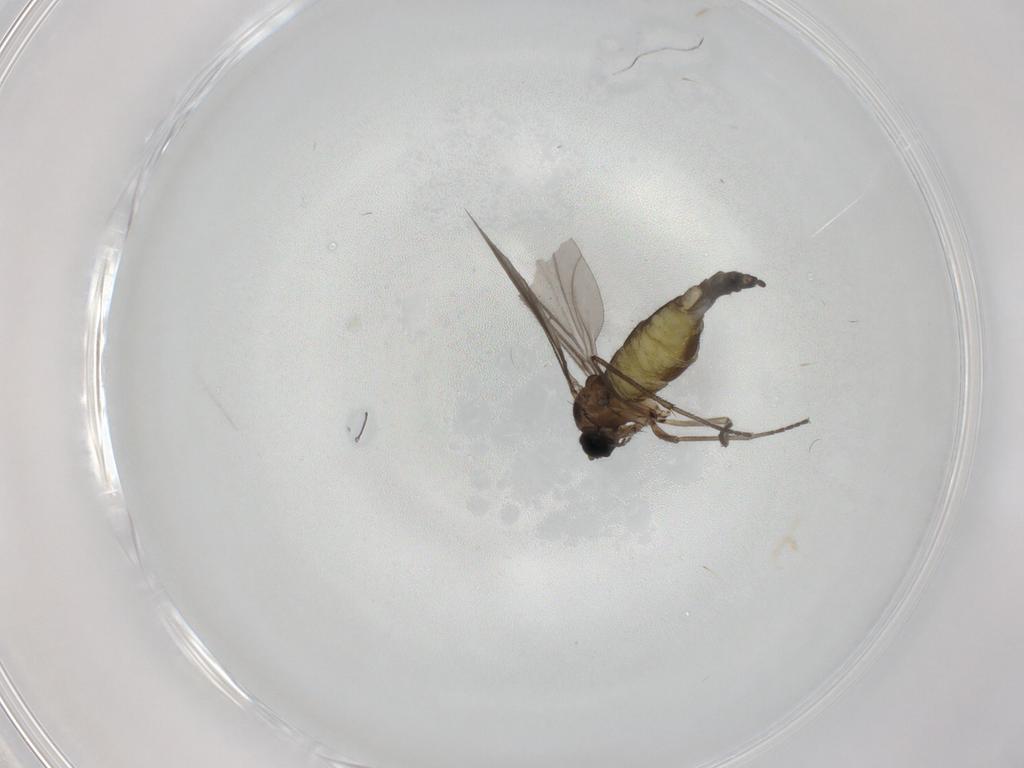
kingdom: Animalia
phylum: Arthropoda
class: Insecta
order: Diptera
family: Sciaridae
